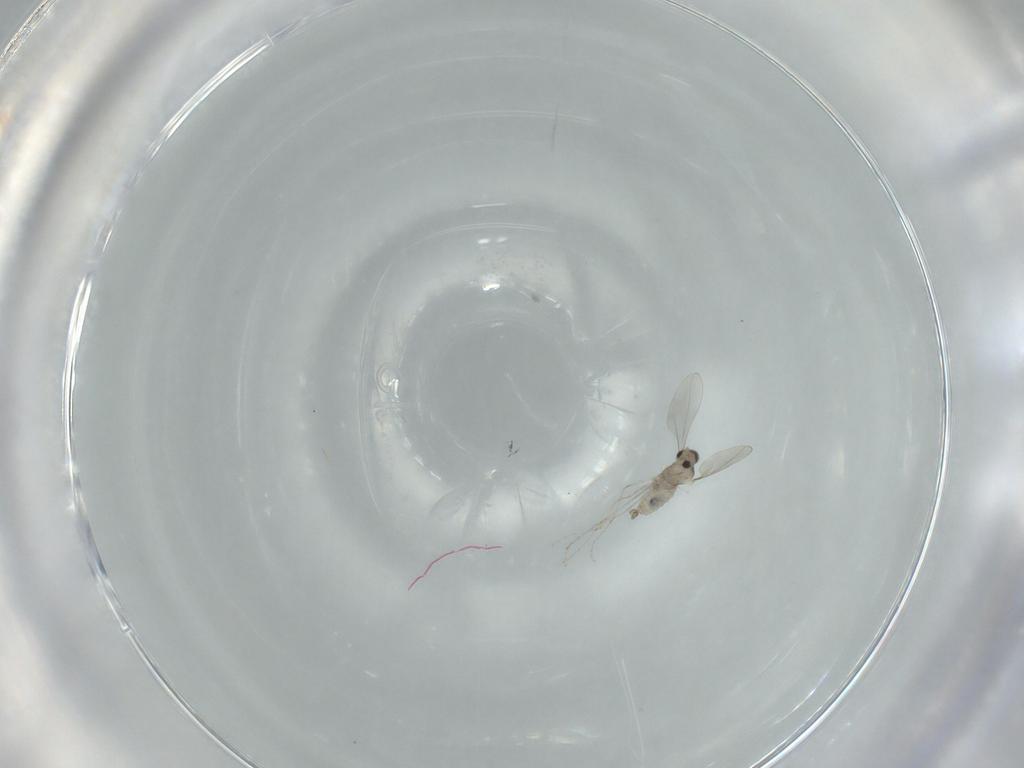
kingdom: Animalia
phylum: Arthropoda
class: Insecta
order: Diptera
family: Cecidomyiidae
